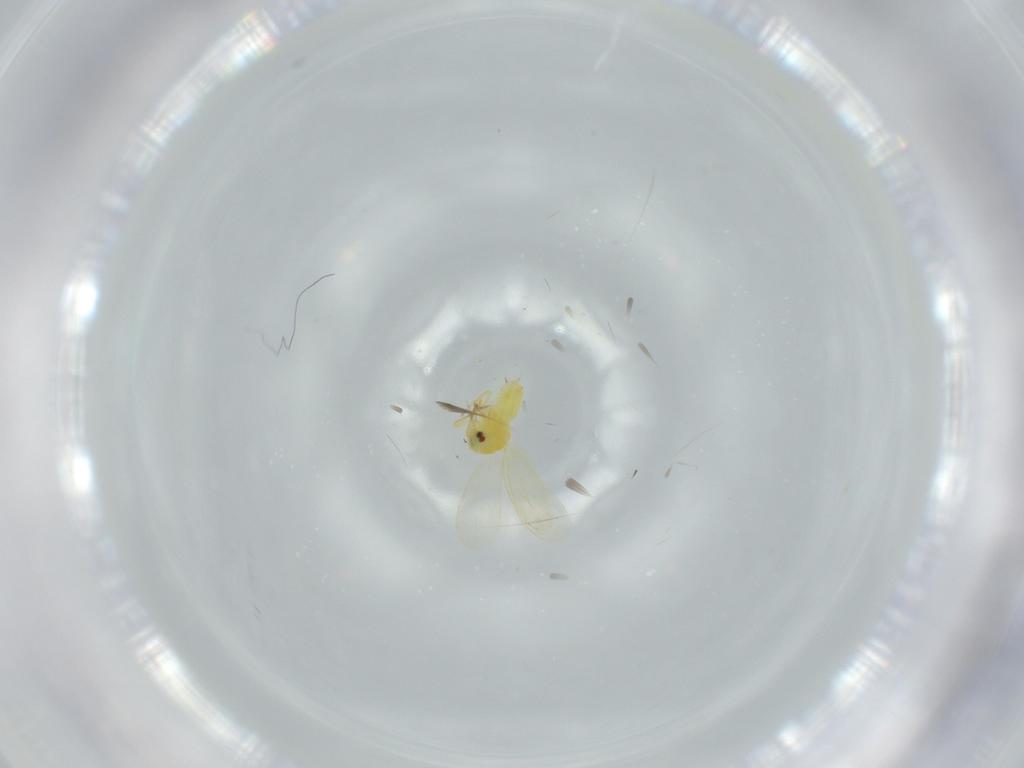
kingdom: Animalia
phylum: Arthropoda
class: Insecta
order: Hemiptera
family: Aleyrodidae
